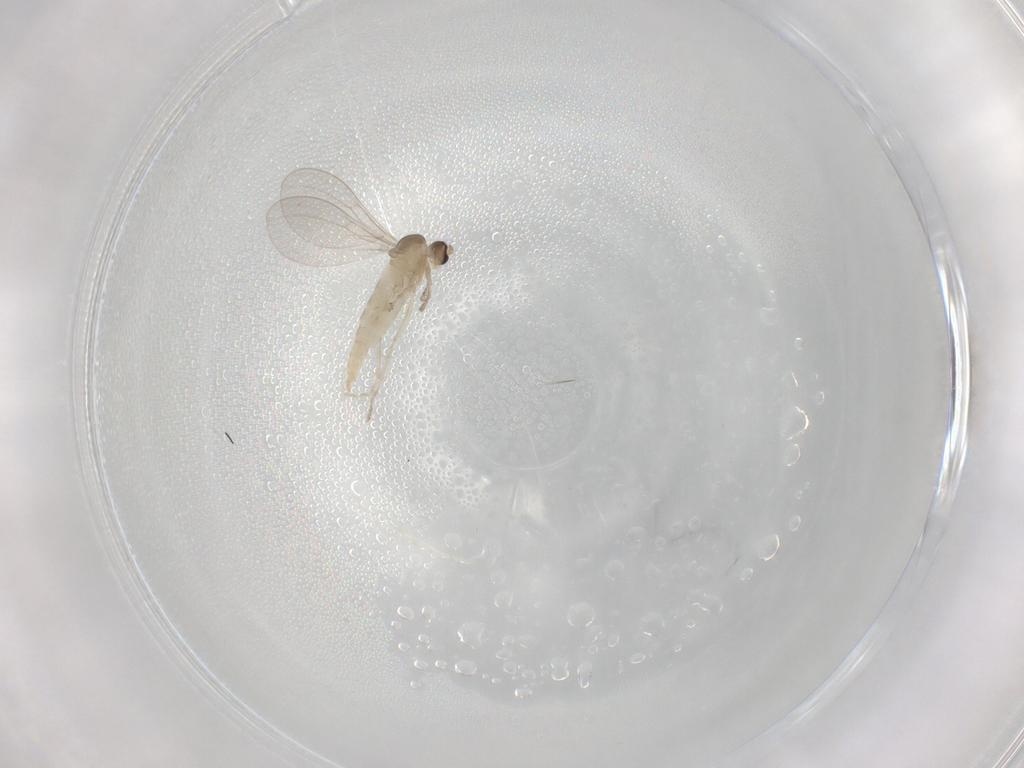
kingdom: Animalia
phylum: Arthropoda
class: Insecta
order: Diptera
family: Cecidomyiidae
